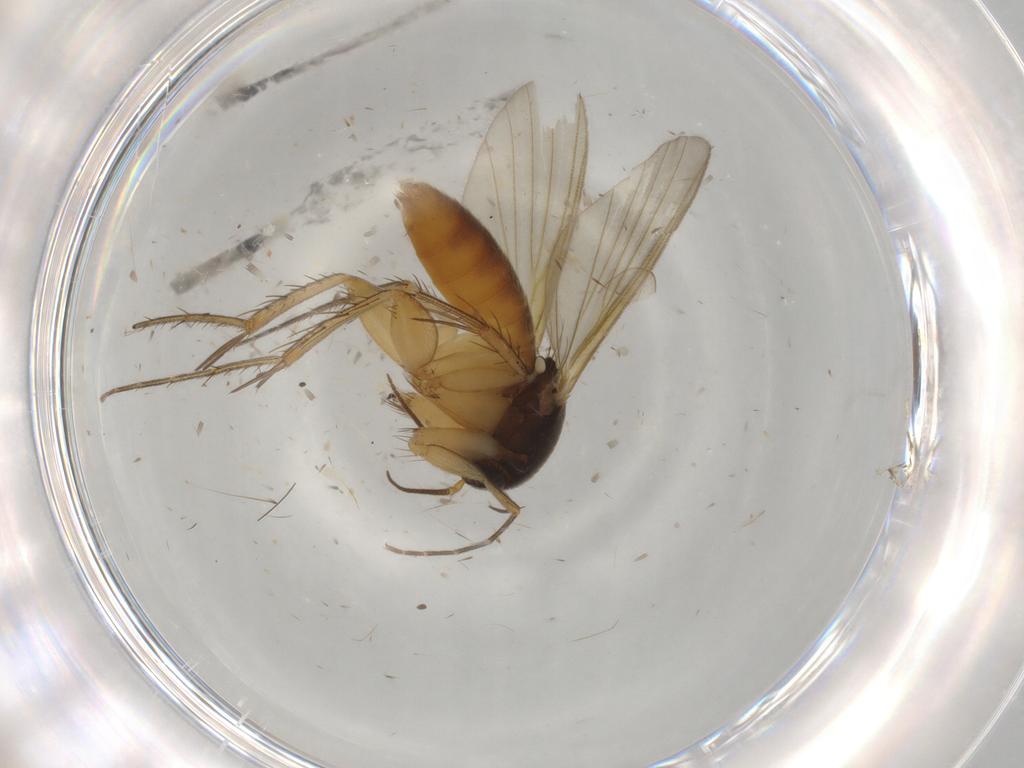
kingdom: Animalia
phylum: Arthropoda
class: Insecta
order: Diptera
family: Mycetophilidae
